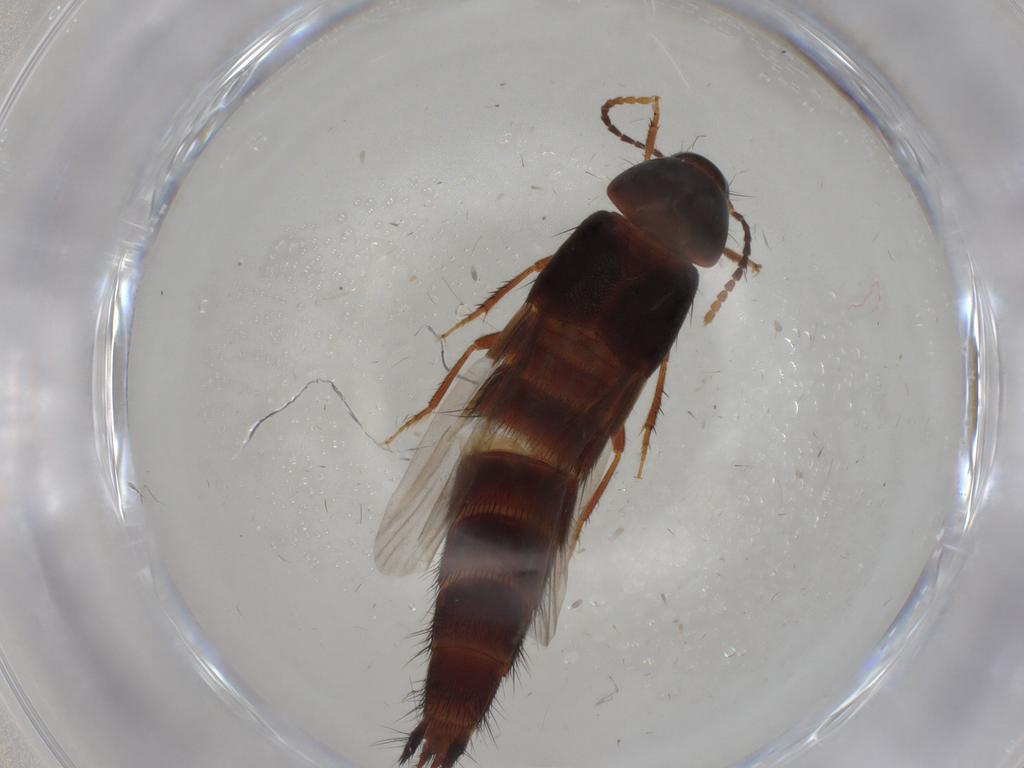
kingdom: Animalia
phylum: Arthropoda
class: Insecta
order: Coleoptera
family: Staphylinidae
